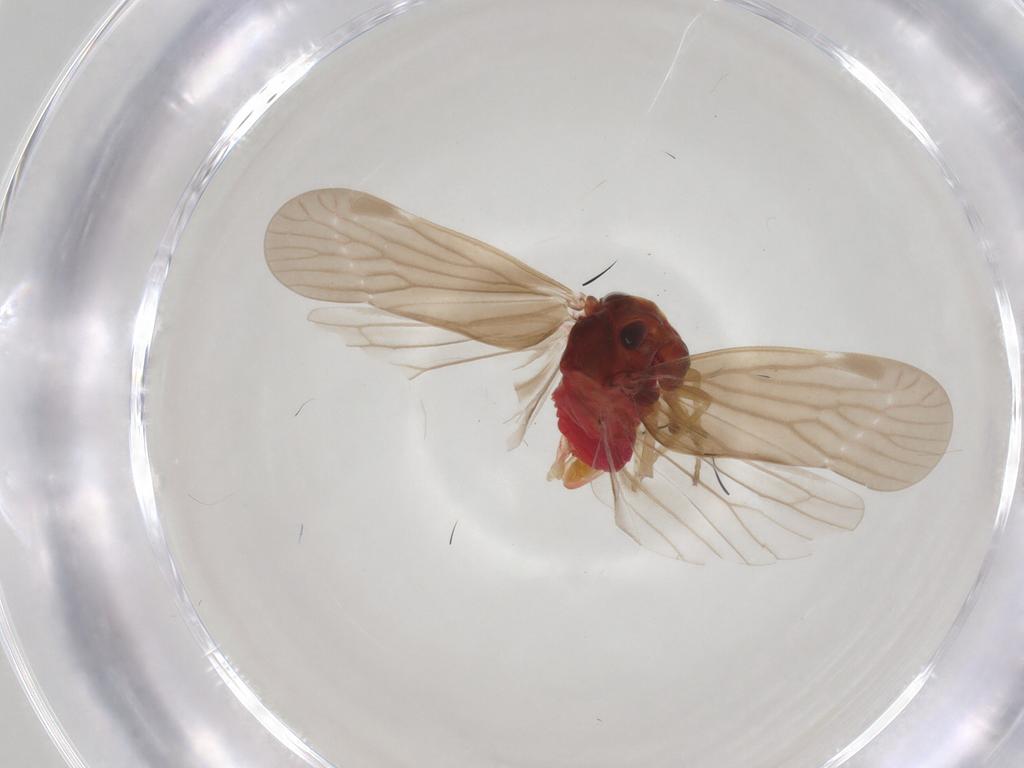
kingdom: Animalia
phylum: Arthropoda
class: Insecta
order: Hemiptera
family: Derbidae
